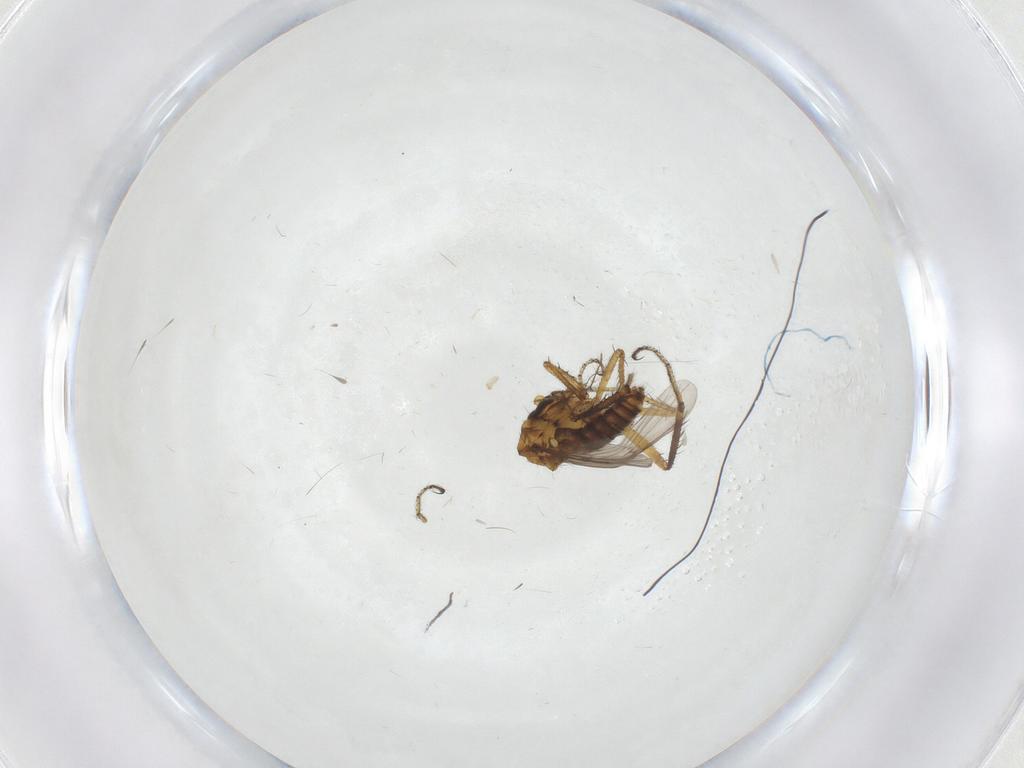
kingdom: Animalia
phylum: Arthropoda
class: Insecta
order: Diptera
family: Ceratopogonidae
